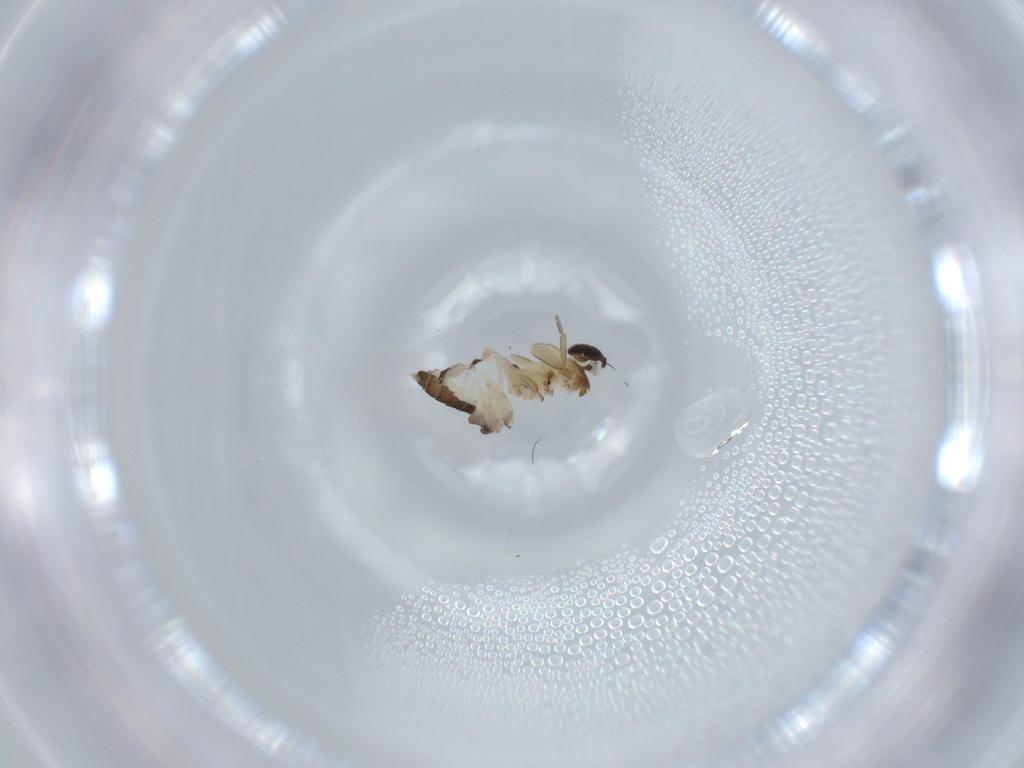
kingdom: Animalia
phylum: Arthropoda
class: Insecta
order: Diptera
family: Phoridae
